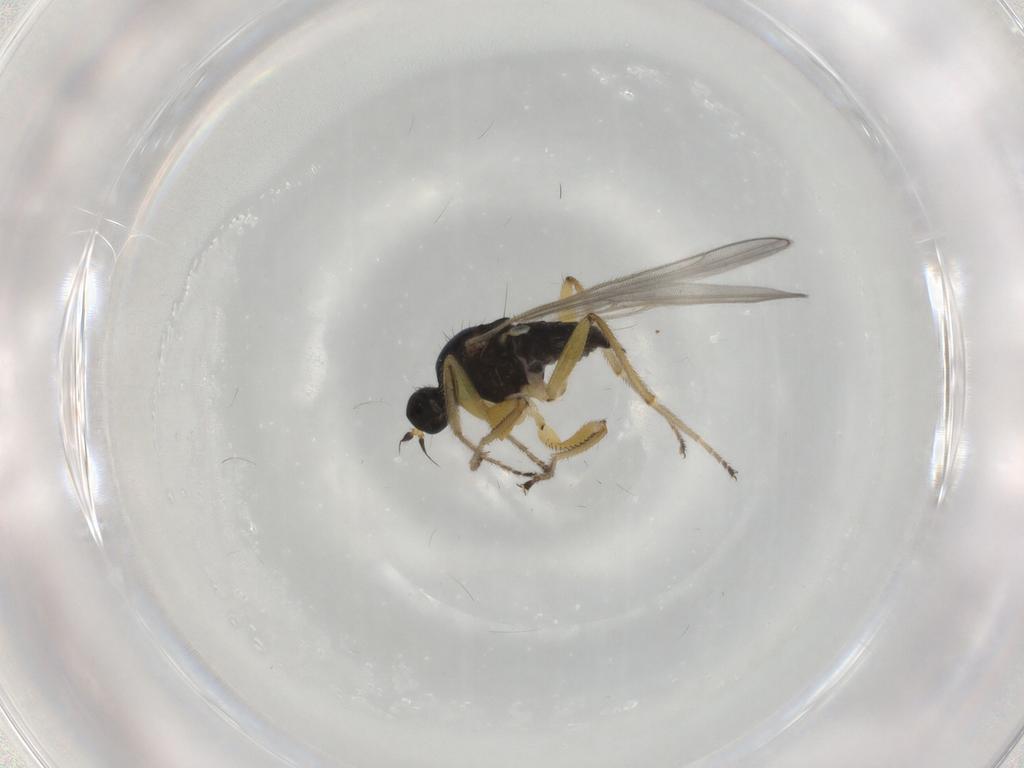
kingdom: Animalia
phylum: Arthropoda
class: Insecta
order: Diptera
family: Hybotidae
